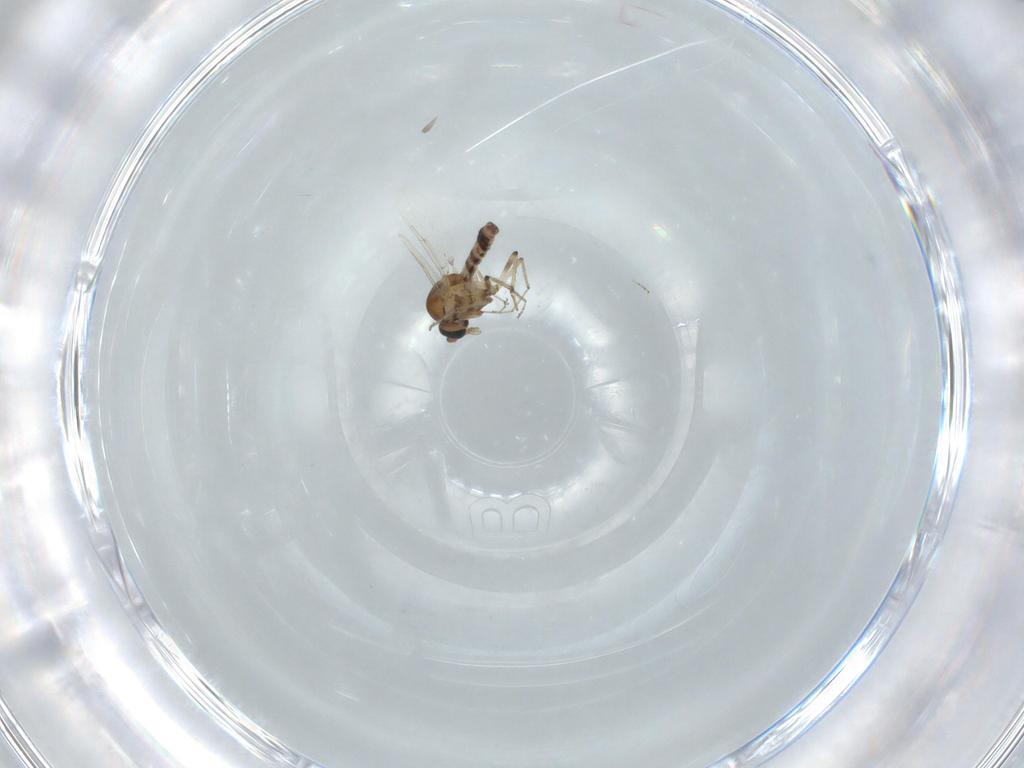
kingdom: Animalia
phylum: Arthropoda
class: Insecta
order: Diptera
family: Ceratopogonidae
